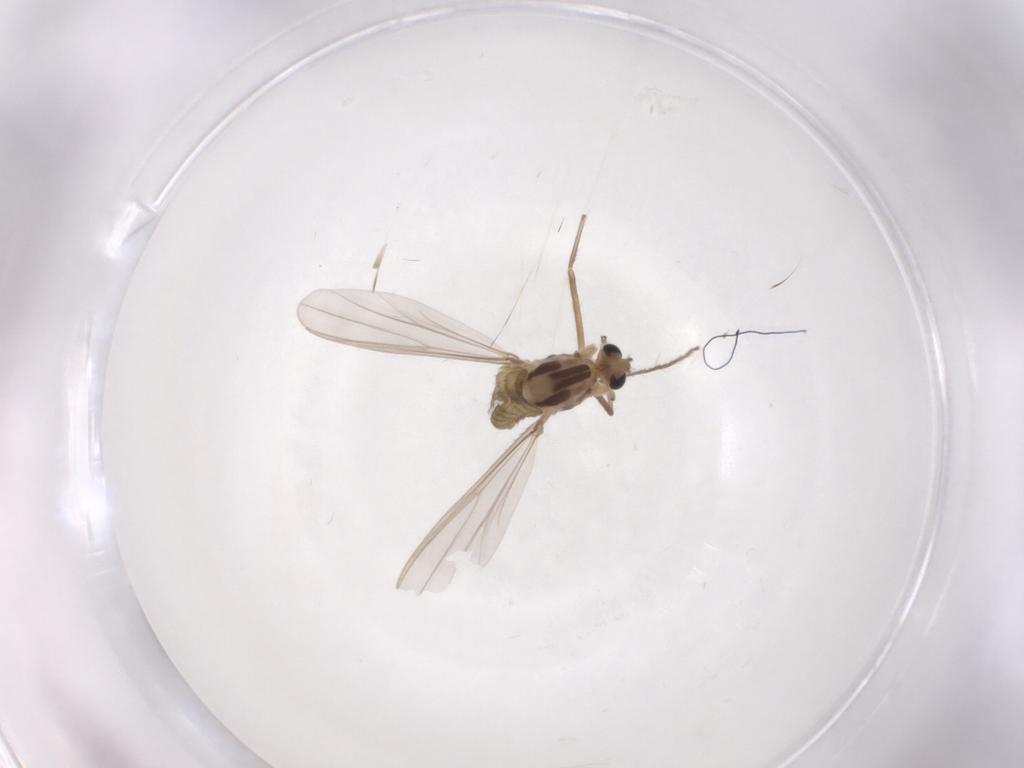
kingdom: Animalia
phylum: Arthropoda
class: Insecta
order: Diptera
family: Chironomidae
